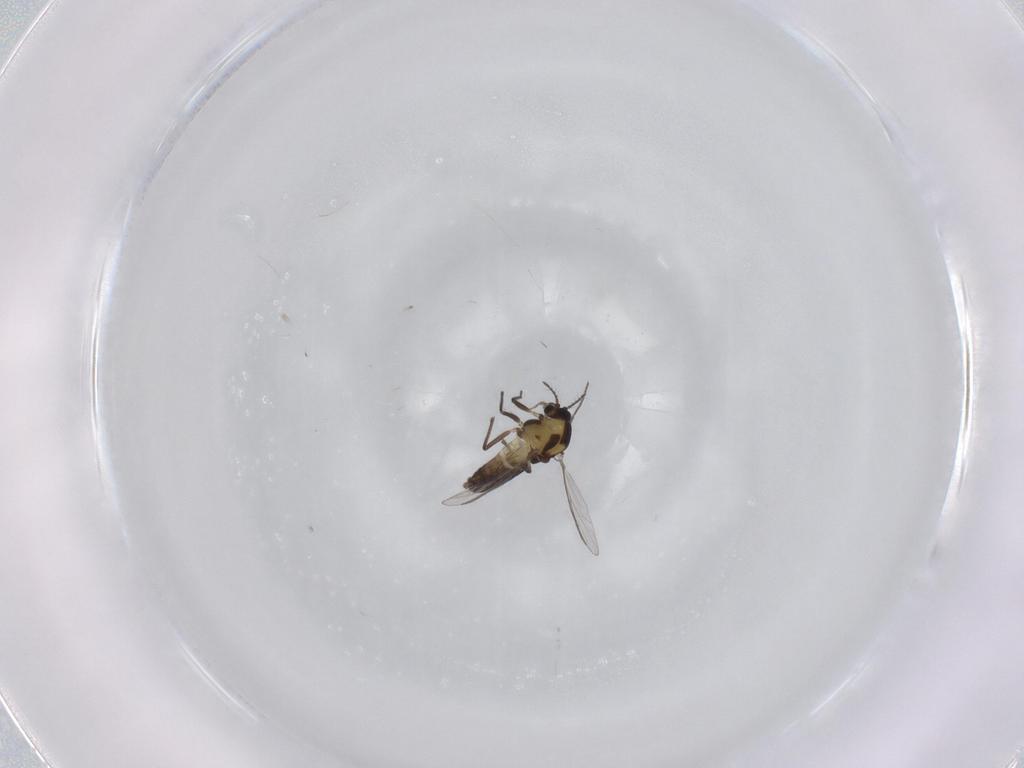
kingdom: Animalia
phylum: Arthropoda
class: Insecta
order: Diptera
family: Chironomidae
